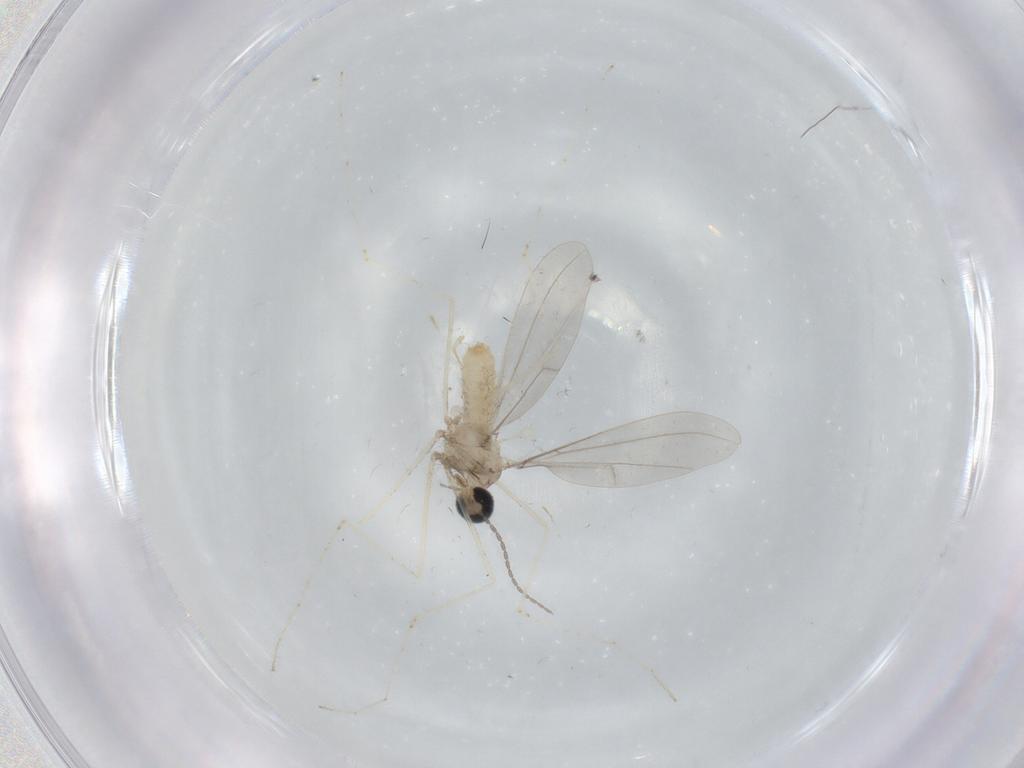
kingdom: Animalia
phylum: Arthropoda
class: Insecta
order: Diptera
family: Cecidomyiidae
